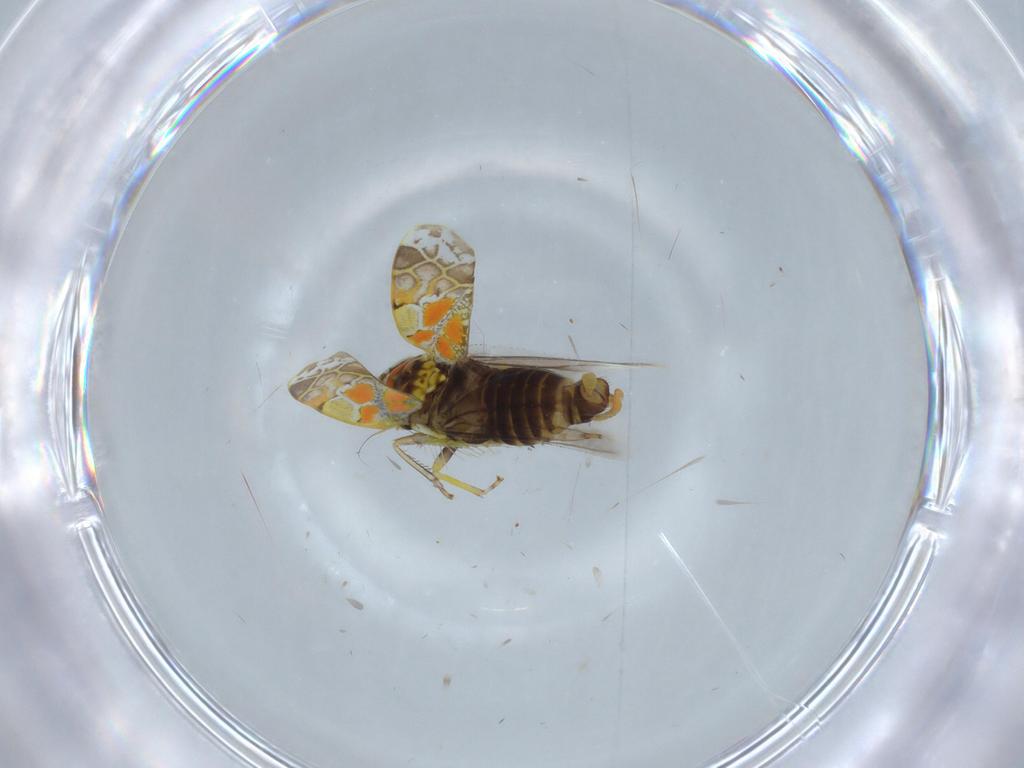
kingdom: Animalia
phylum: Arthropoda
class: Insecta
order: Hemiptera
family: Cicadellidae
